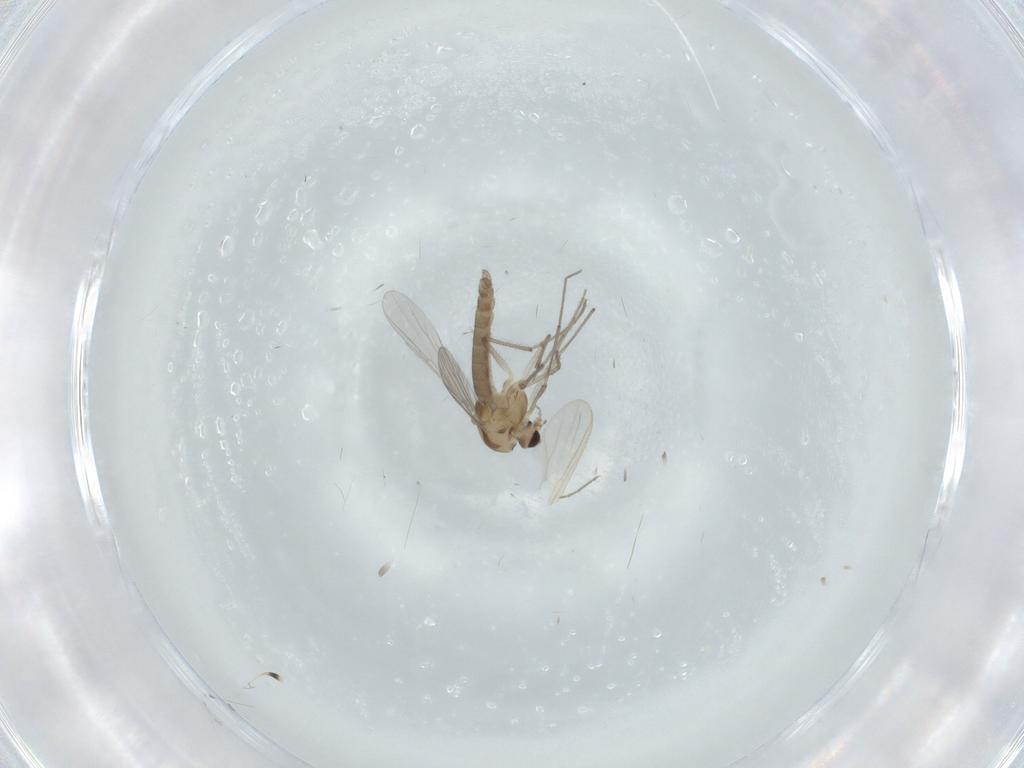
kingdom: Animalia
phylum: Arthropoda
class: Insecta
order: Diptera
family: Chironomidae
